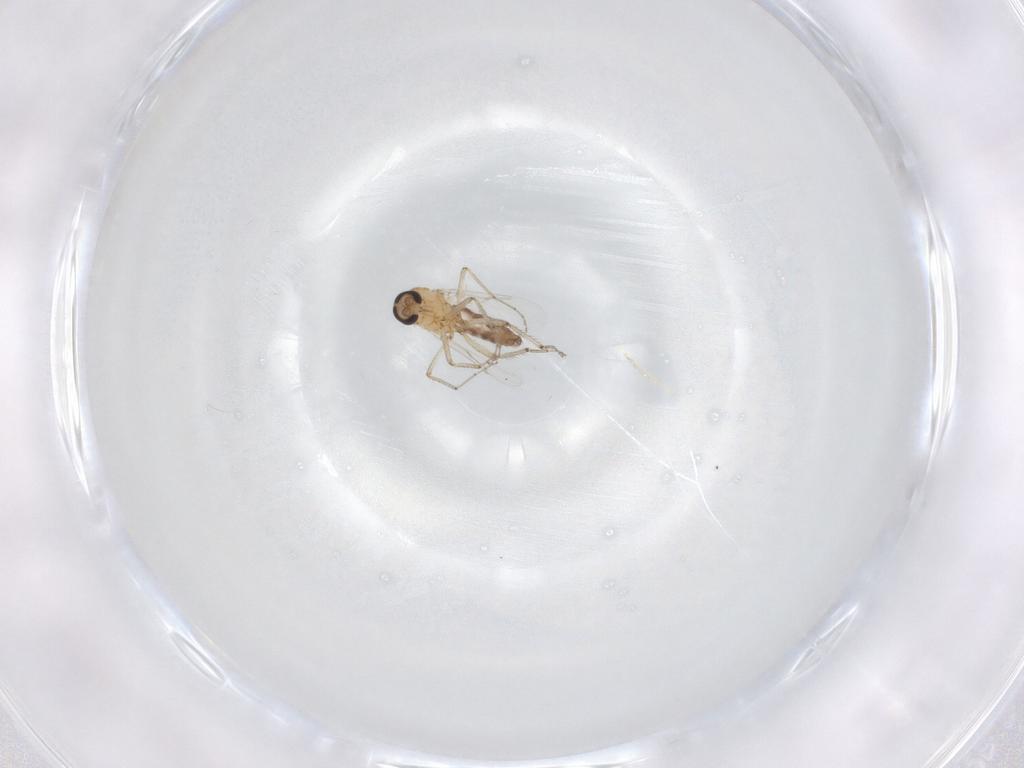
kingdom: Animalia
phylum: Arthropoda
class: Insecta
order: Diptera
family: Ceratopogonidae
